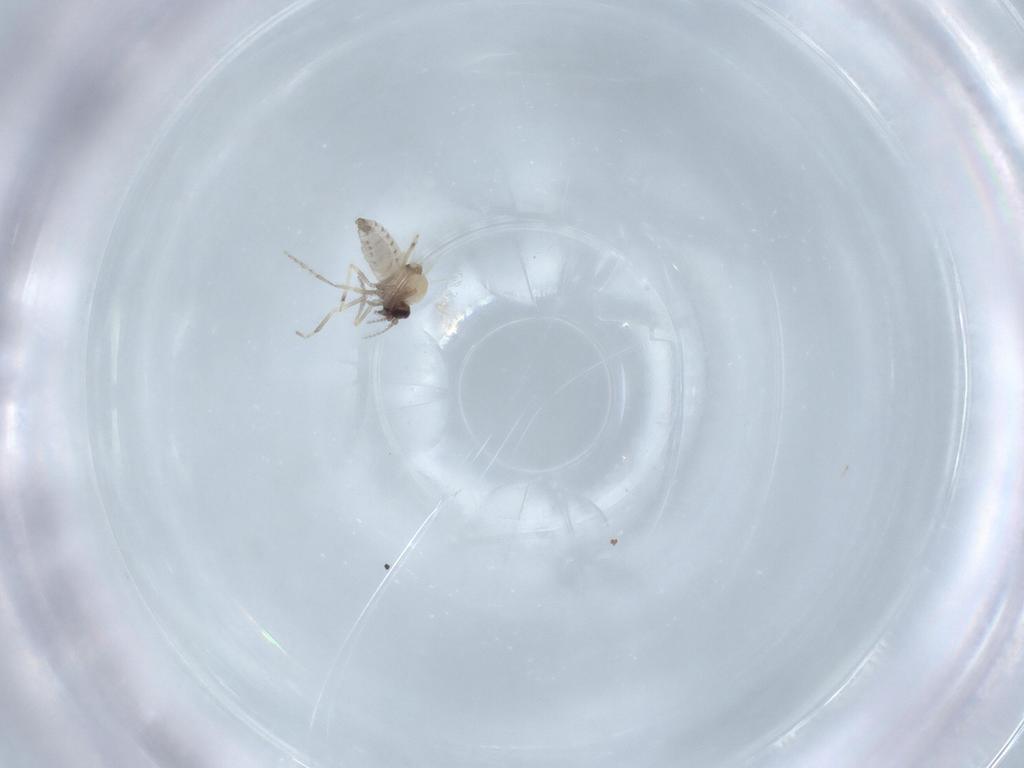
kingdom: Animalia
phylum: Arthropoda
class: Insecta
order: Diptera
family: Ceratopogonidae
